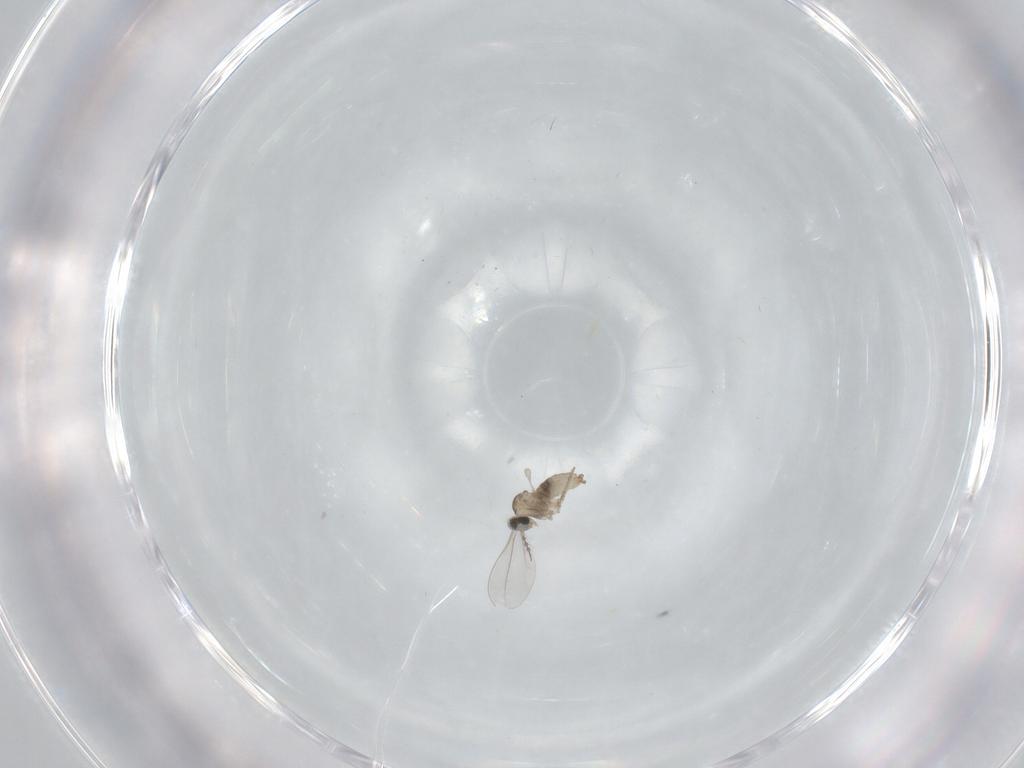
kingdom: Animalia
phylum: Arthropoda
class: Insecta
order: Diptera
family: Cecidomyiidae
